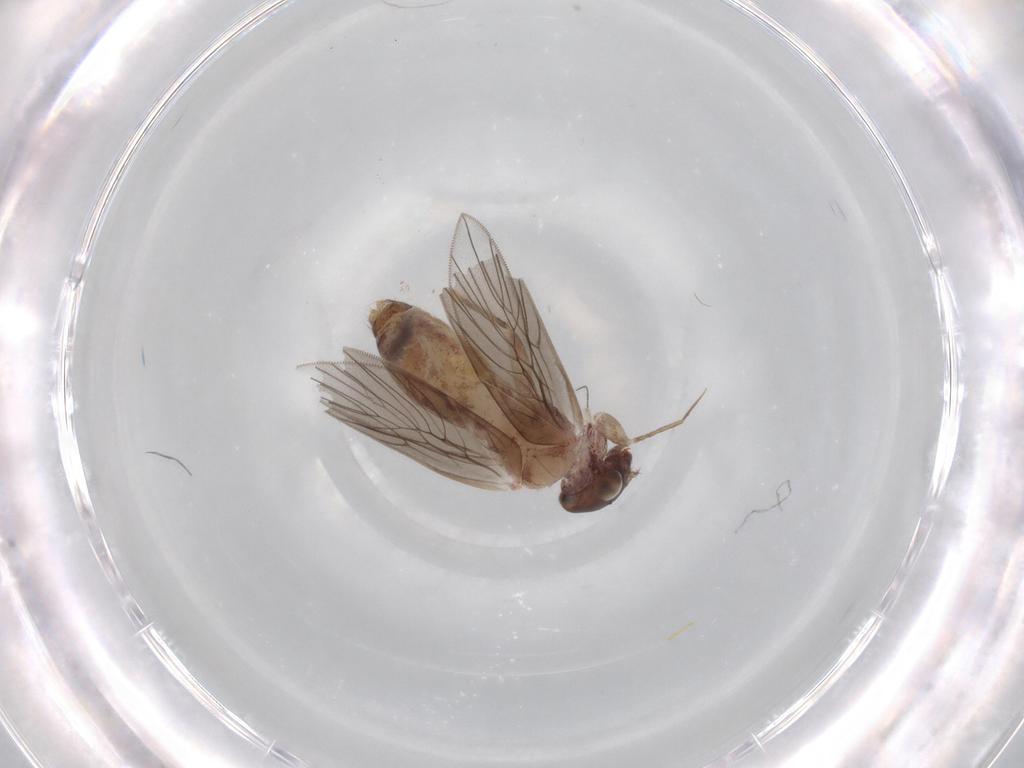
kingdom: Animalia
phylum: Arthropoda
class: Insecta
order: Psocodea
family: Lepidopsocidae
